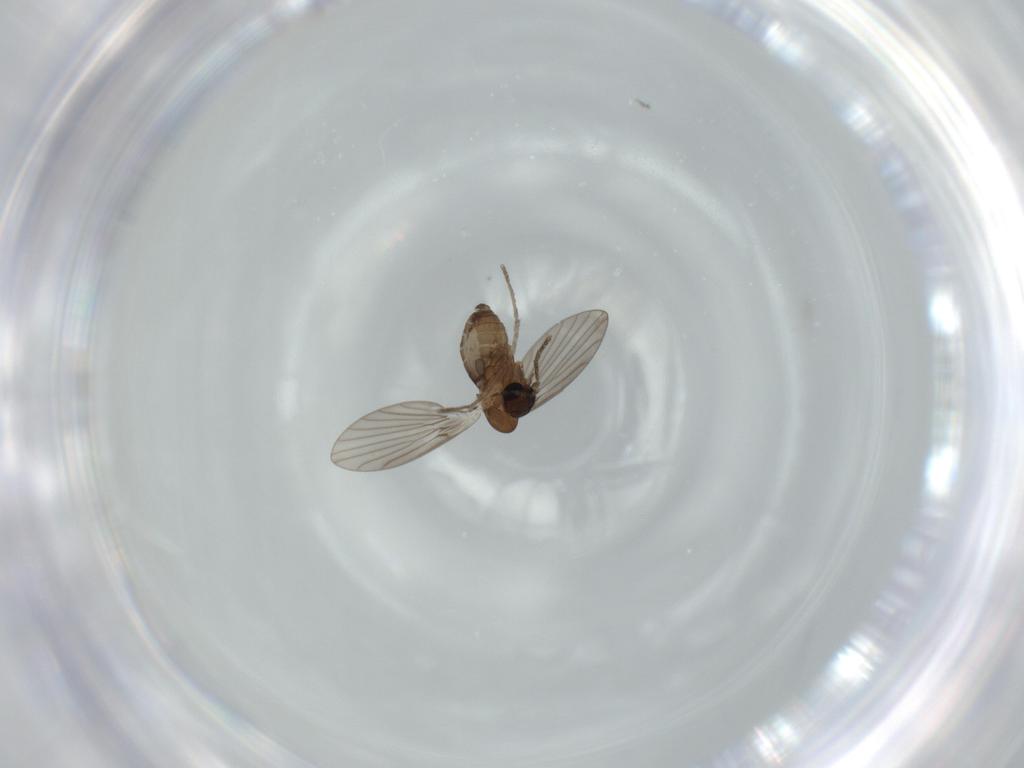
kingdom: Animalia
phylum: Arthropoda
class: Insecta
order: Diptera
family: Psychodidae
